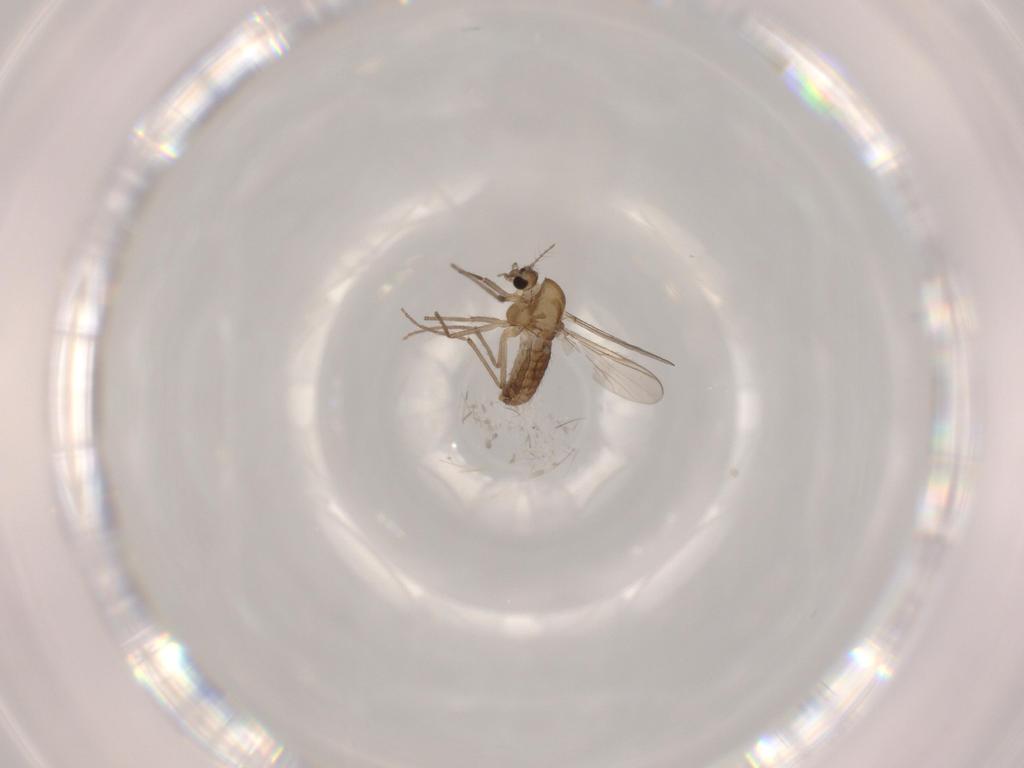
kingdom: Animalia
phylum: Arthropoda
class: Insecta
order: Diptera
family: Chironomidae
